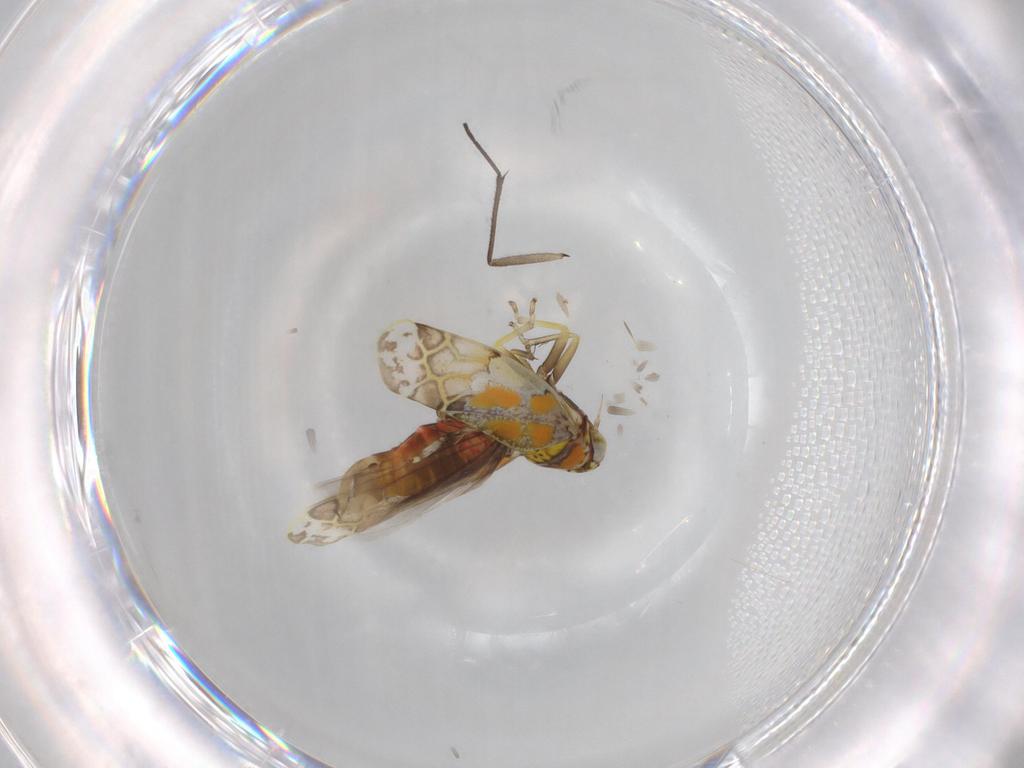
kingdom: Animalia
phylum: Arthropoda
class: Insecta
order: Hemiptera
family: Cicadellidae
